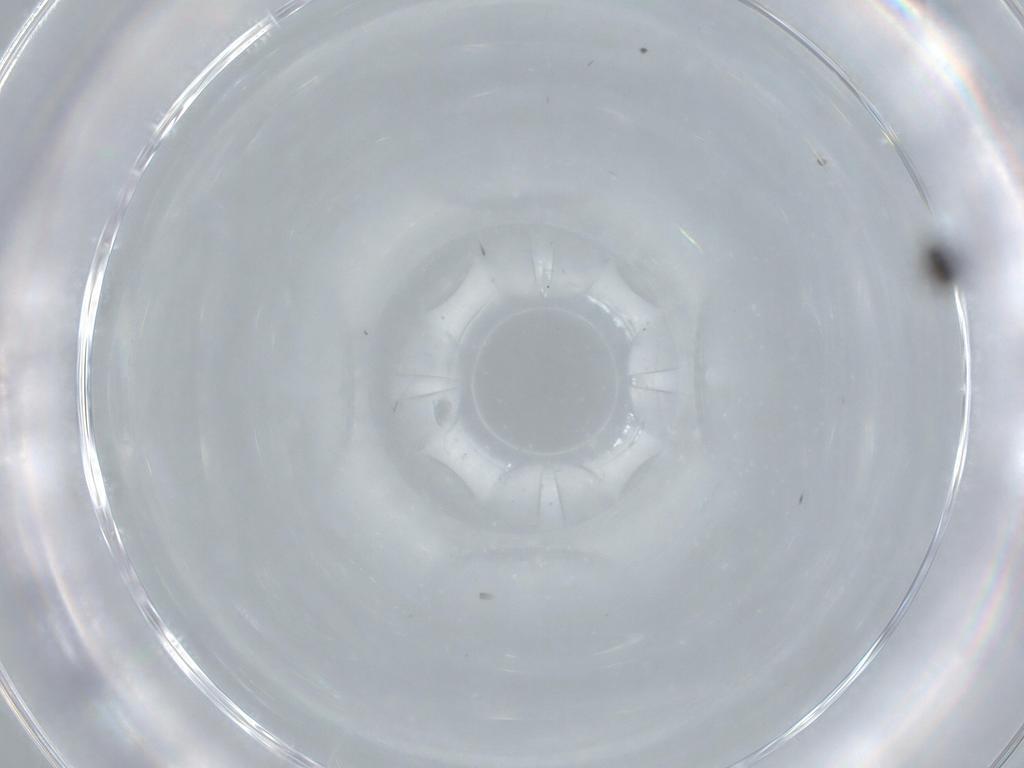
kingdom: Animalia
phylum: Arthropoda
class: Insecta
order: Hymenoptera
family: Scelionidae
